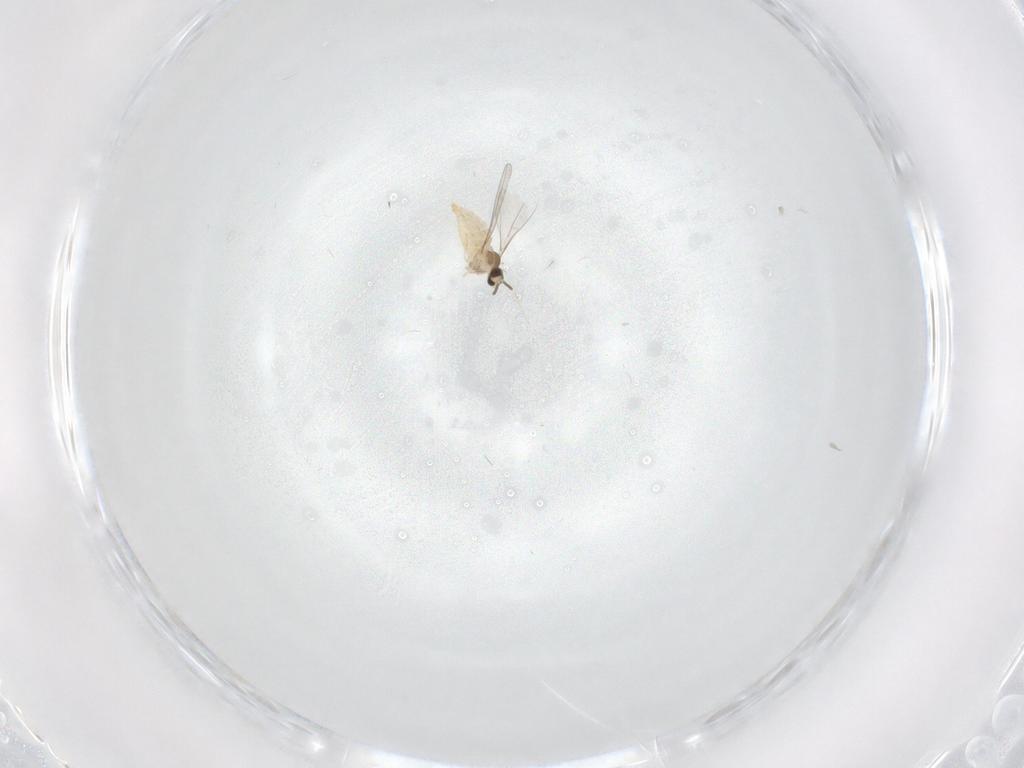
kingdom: Animalia
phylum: Arthropoda
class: Insecta
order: Diptera
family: Cecidomyiidae
